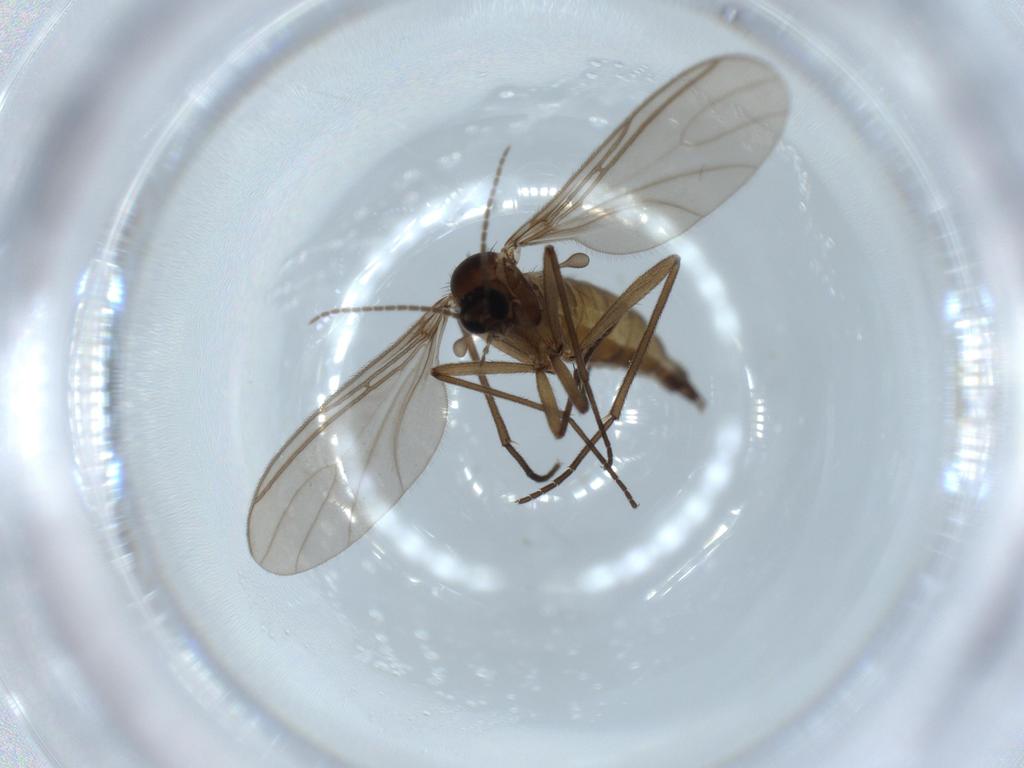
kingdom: Animalia
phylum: Arthropoda
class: Insecta
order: Diptera
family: Sciaridae
